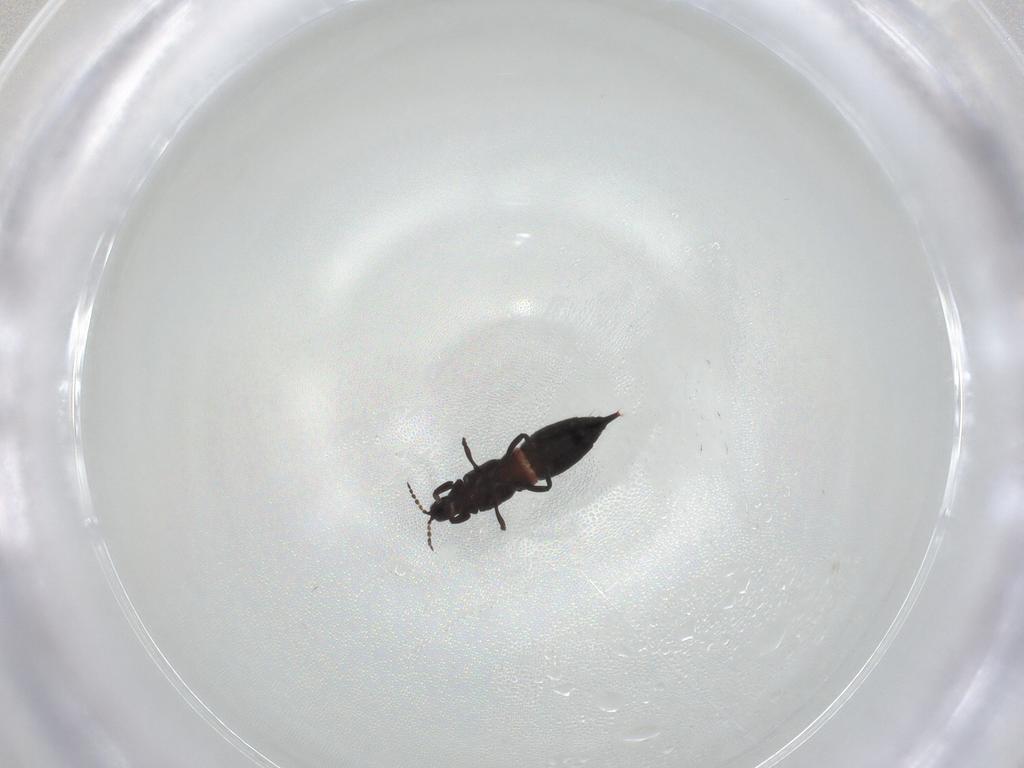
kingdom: Animalia
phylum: Arthropoda
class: Insecta
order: Thysanoptera
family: Phlaeothripidae
